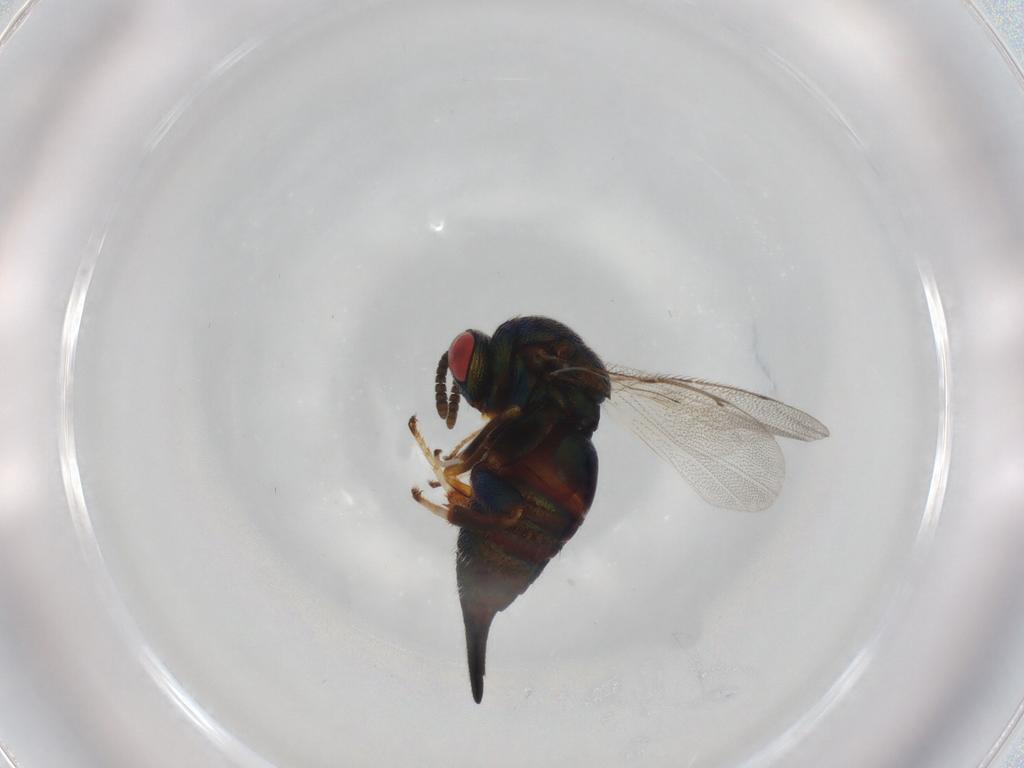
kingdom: Animalia
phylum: Arthropoda
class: Insecta
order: Hymenoptera
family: Ormyridae
